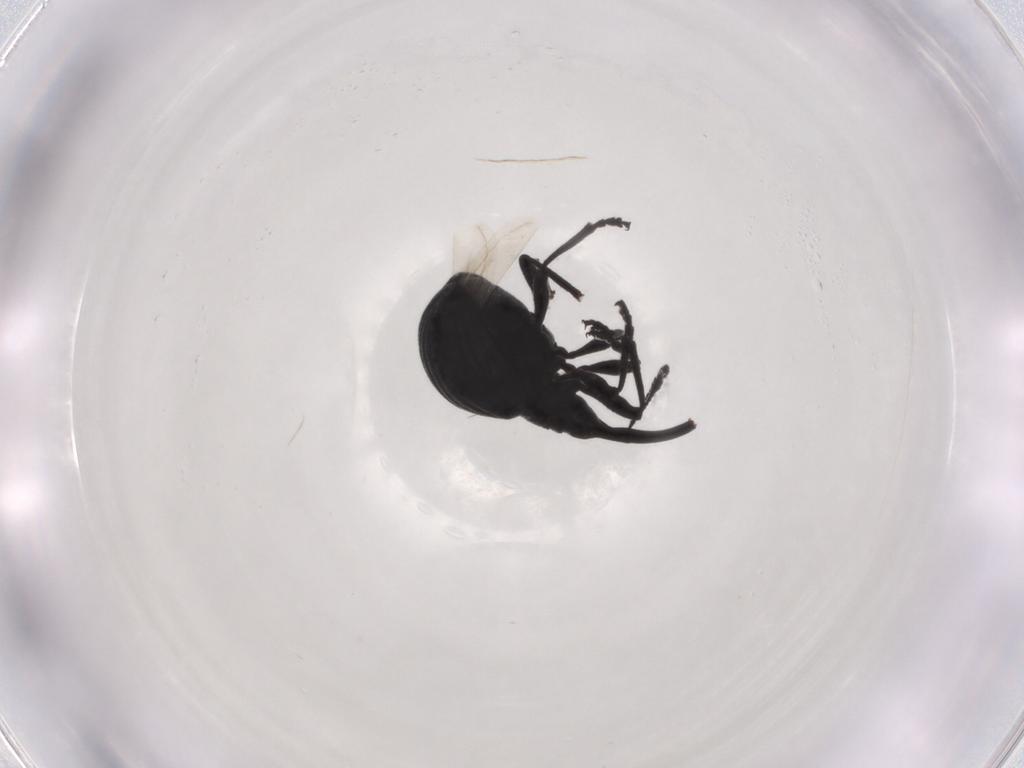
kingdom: Animalia
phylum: Arthropoda
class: Insecta
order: Coleoptera
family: Brentidae
